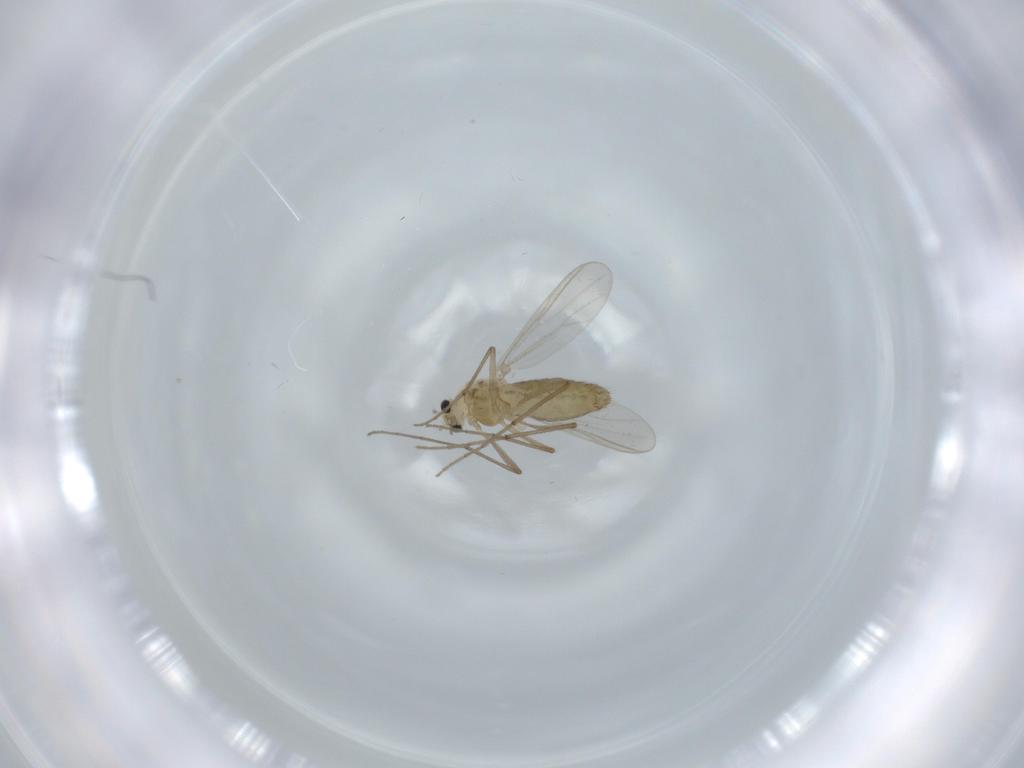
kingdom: Animalia
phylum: Arthropoda
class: Insecta
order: Diptera
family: Chironomidae
